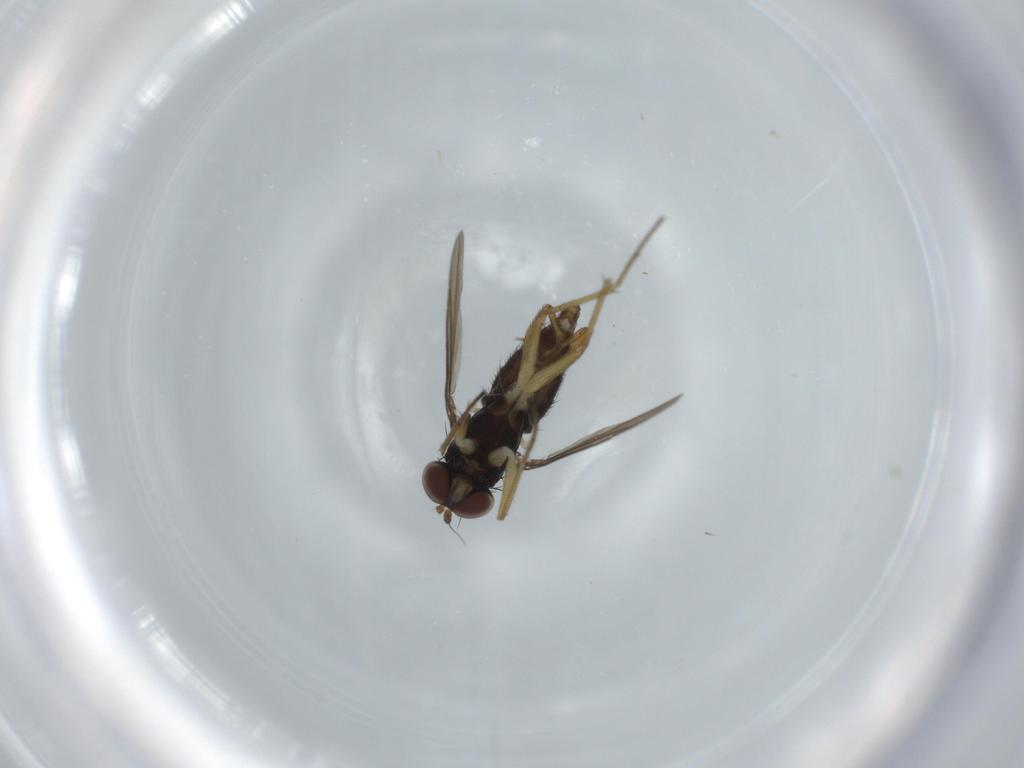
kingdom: Animalia
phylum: Arthropoda
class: Insecta
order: Diptera
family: Dolichopodidae
